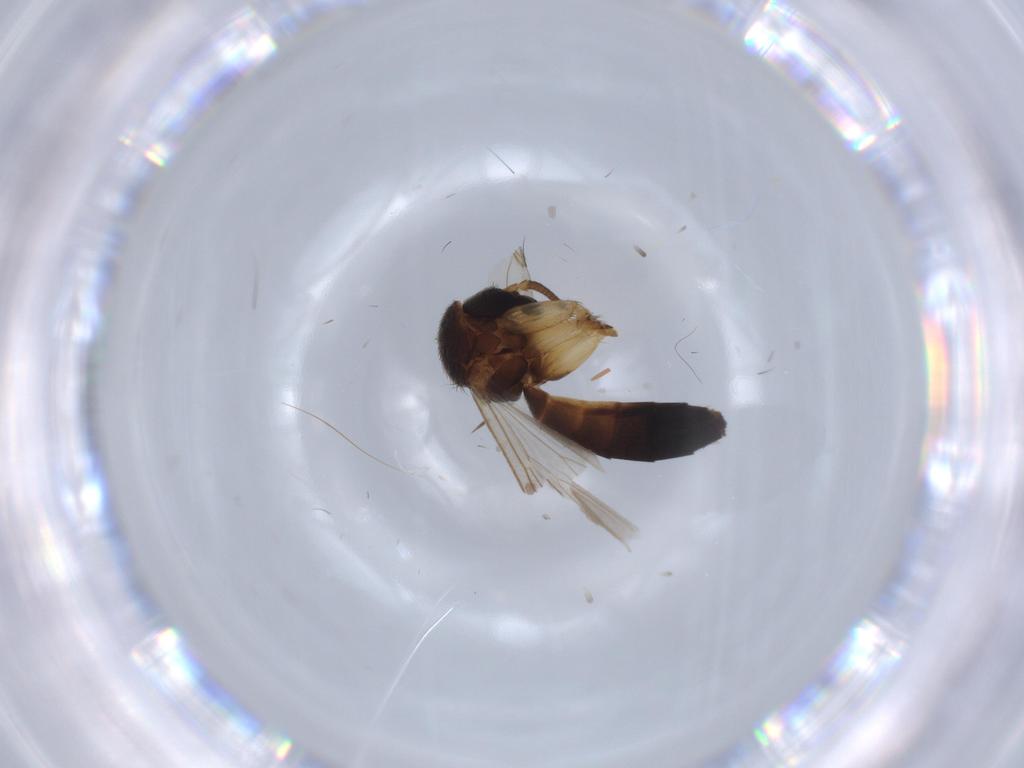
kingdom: Animalia
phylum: Arthropoda
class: Insecta
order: Diptera
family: Mycetophilidae
